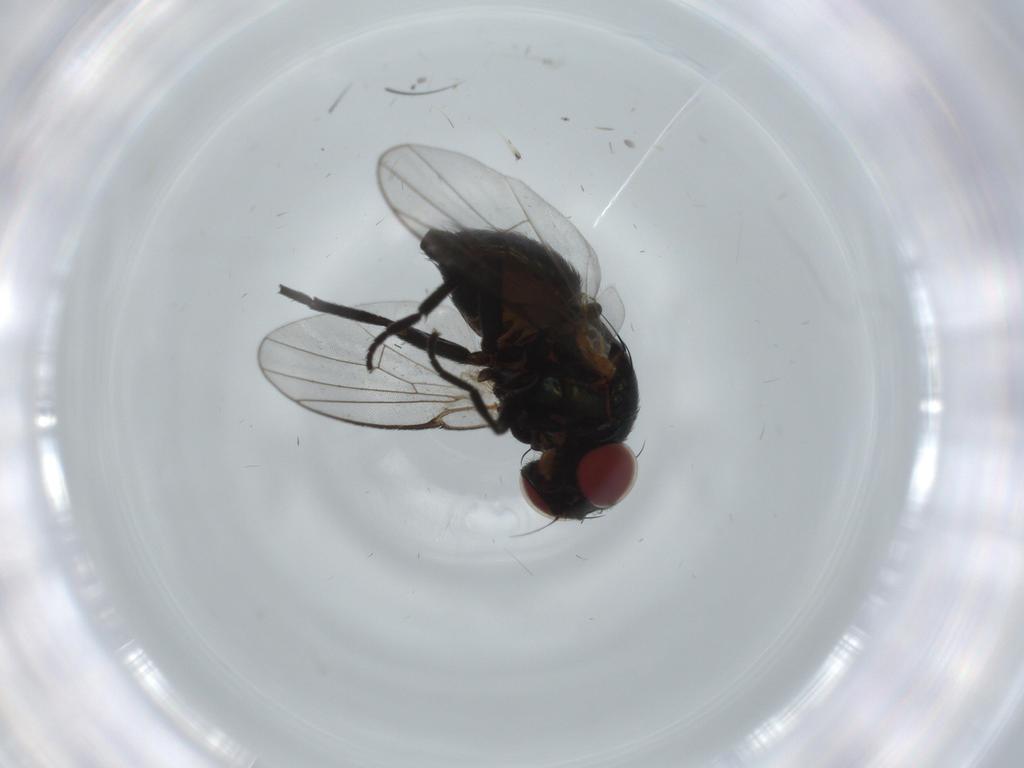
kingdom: Animalia
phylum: Arthropoda
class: Insecta
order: Diptera
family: Agromyzidae
